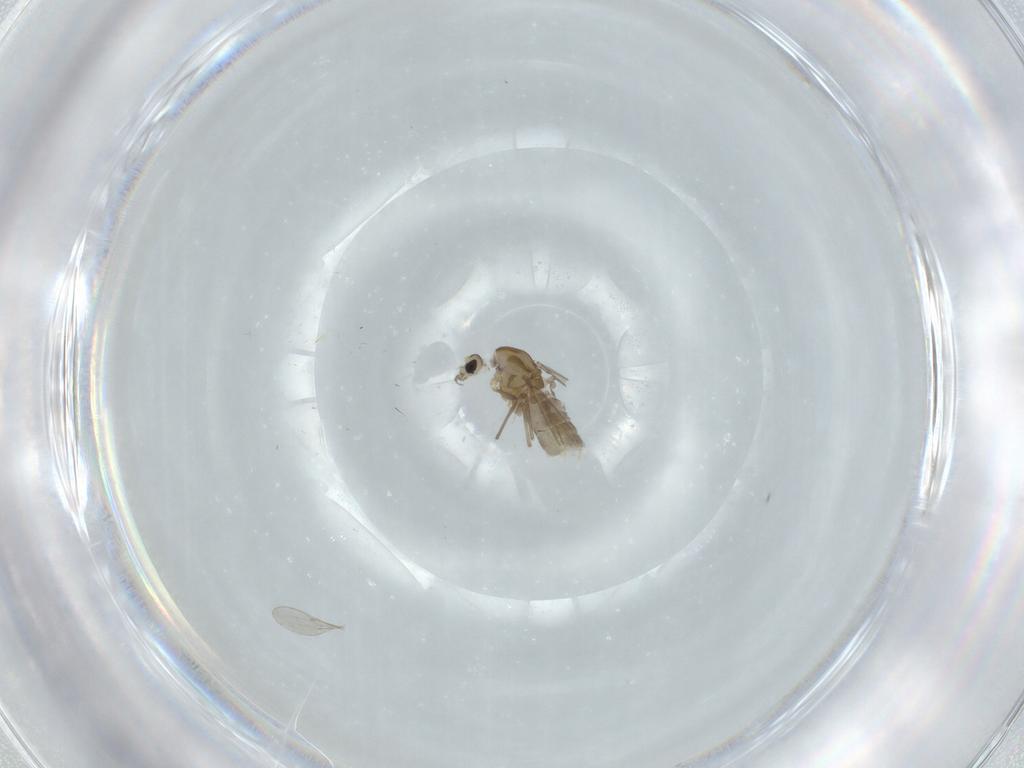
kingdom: Animalia
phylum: Arthropoda
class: Insecta
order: Diptera
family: Chironomidae
